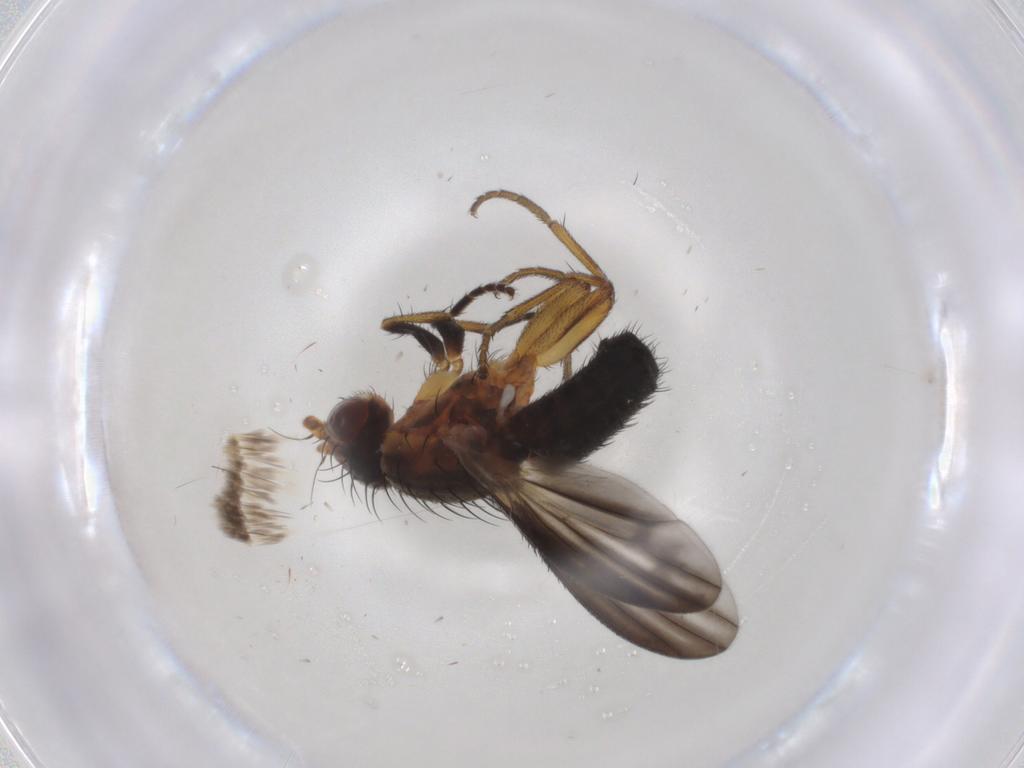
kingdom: Animalia
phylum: Arthropoda
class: Insecta
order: Diptera
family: Heleomyzidae
